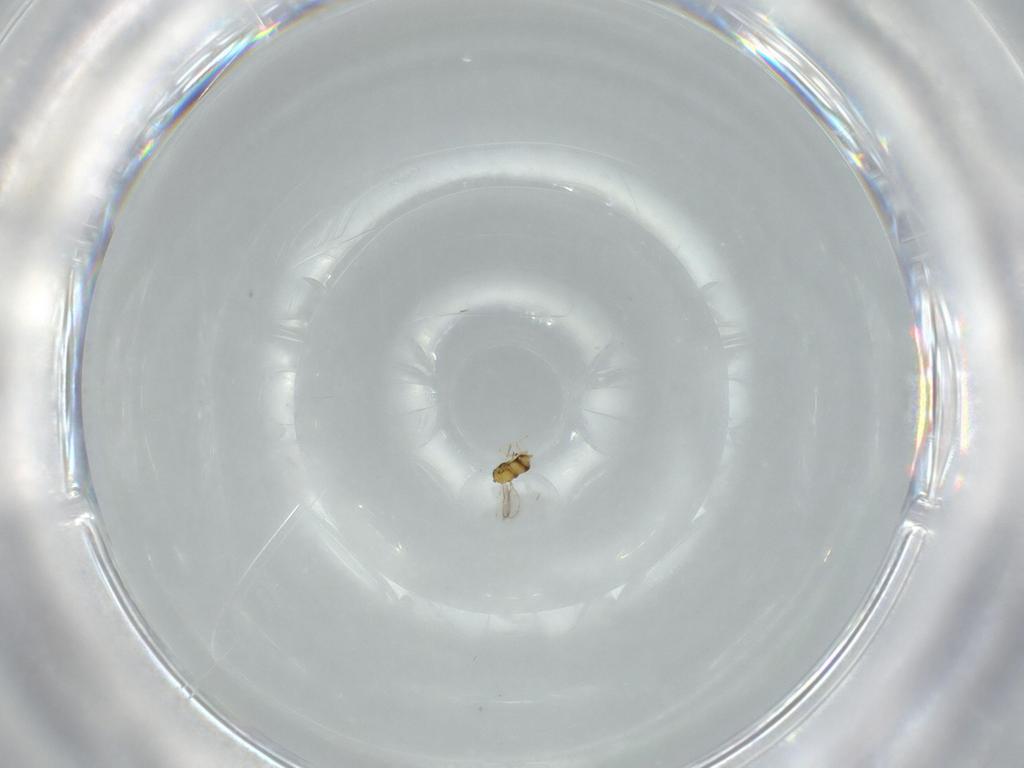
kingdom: Animalia
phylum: Arthropoda
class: Insecta
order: Hymenoptera
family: Aphelinidae
